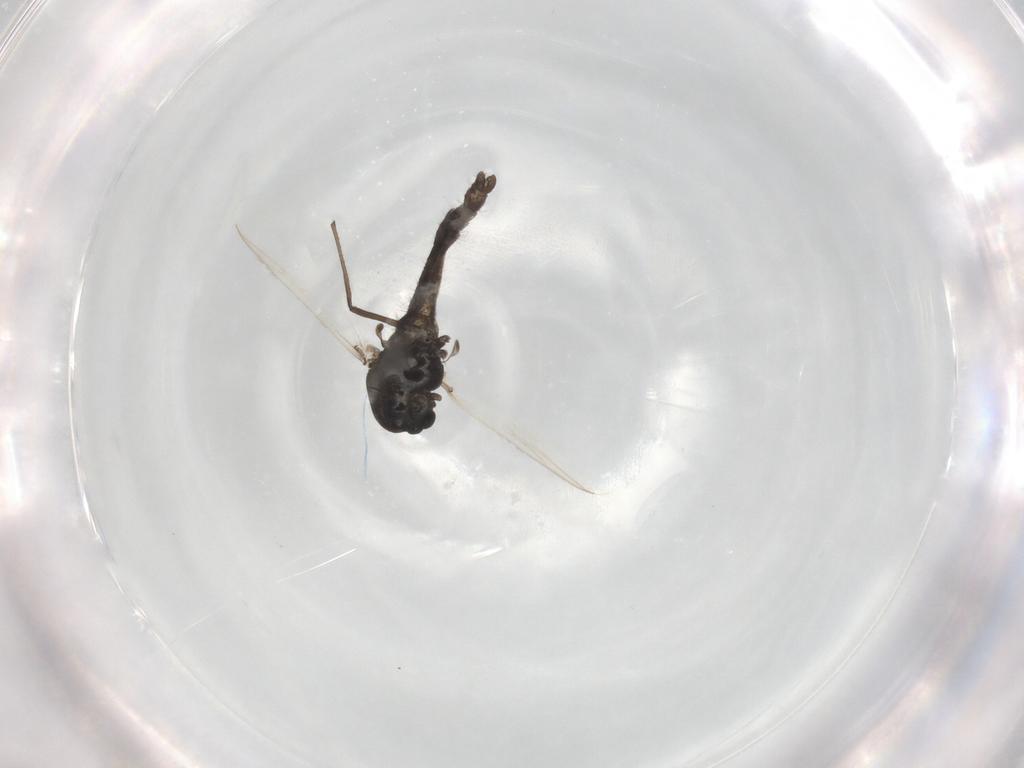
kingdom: Animalia
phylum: Arthropoda
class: Insecta
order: Diptera
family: Chironomidae
